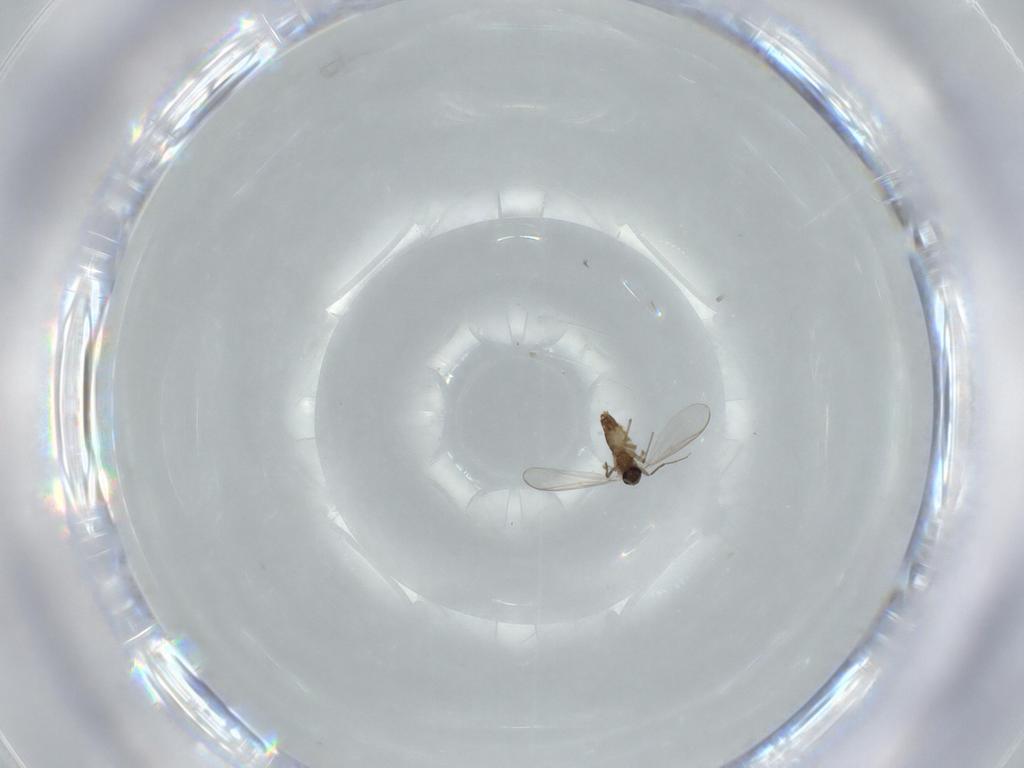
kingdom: Animalia
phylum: Arthropoda
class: Insecta
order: Diptera
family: Chironomidae
